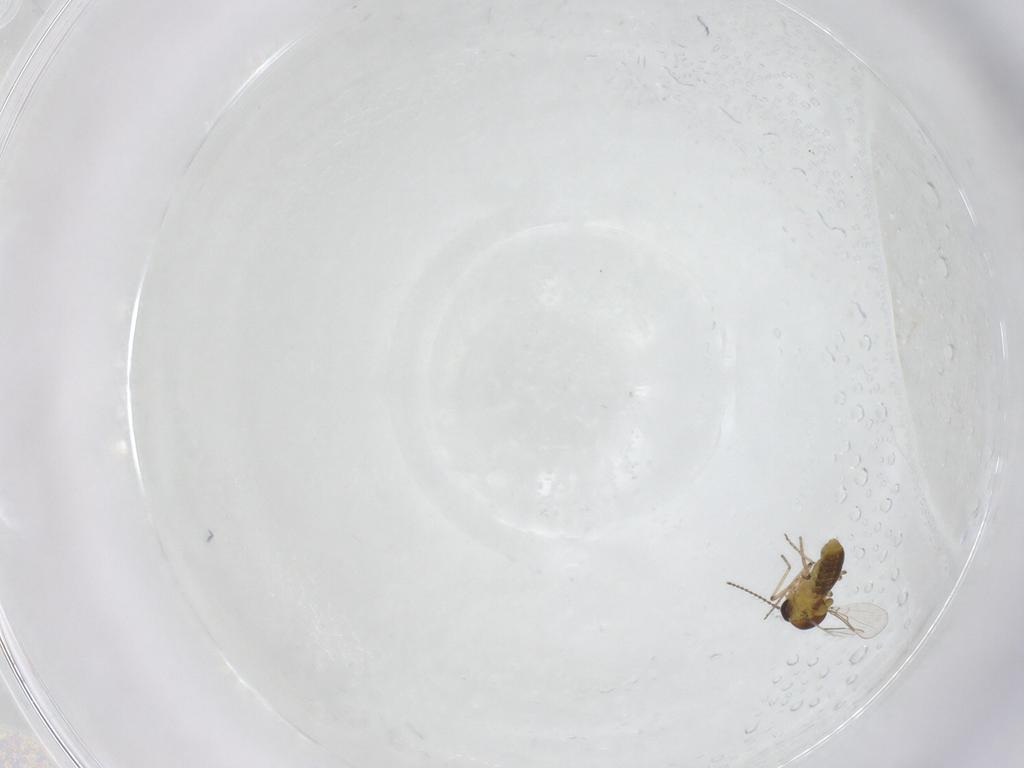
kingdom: Animalia
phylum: Arthropoda
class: Insecta
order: Diptera
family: Ceratopogonidae
